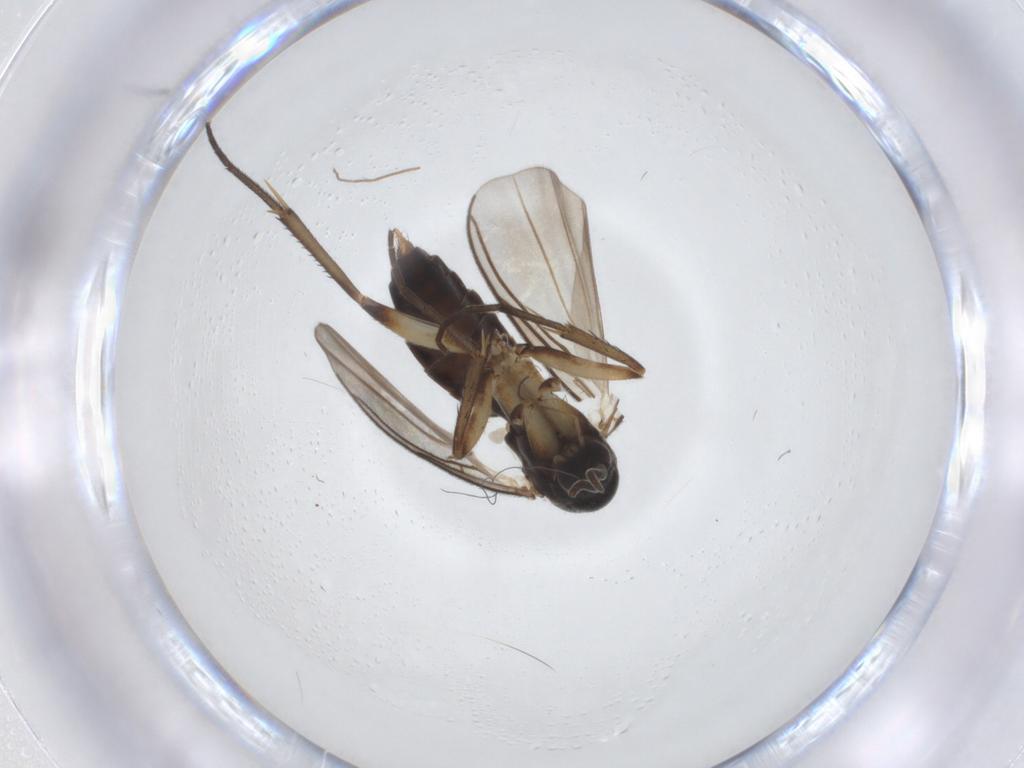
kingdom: Animalia
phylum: Arthropoda
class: Insecta
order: Diptera
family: Mycetophilidae
